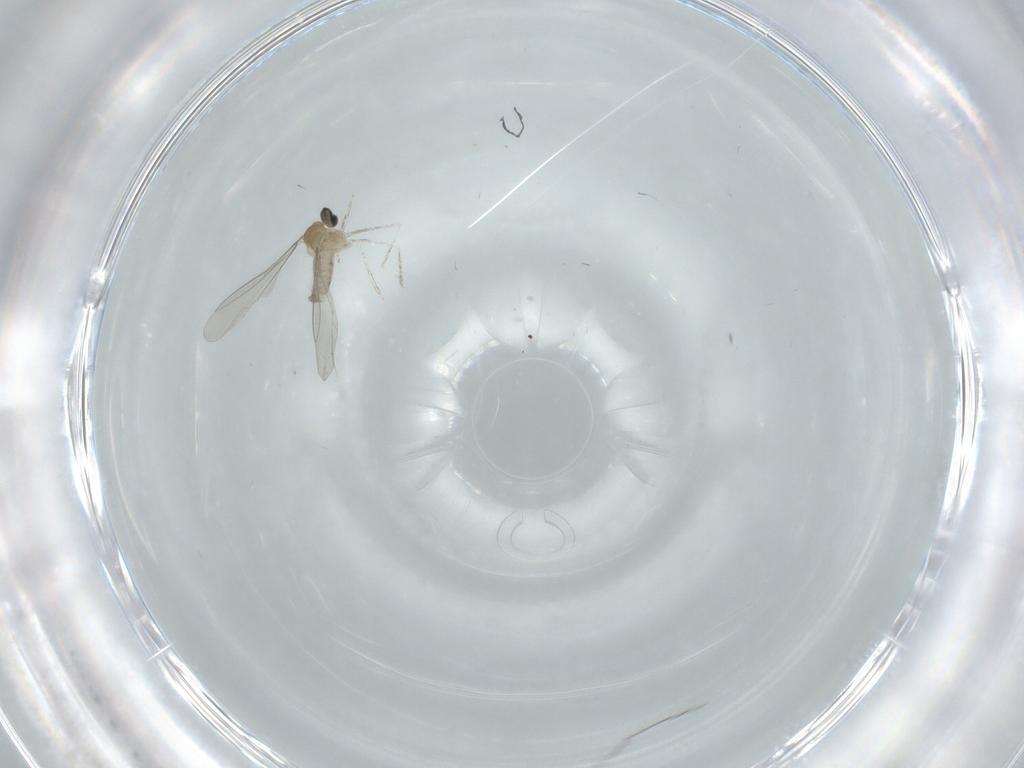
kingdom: Animalia
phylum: Arthropoda
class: Insecta
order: Diptera
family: Cecidomyiidae
